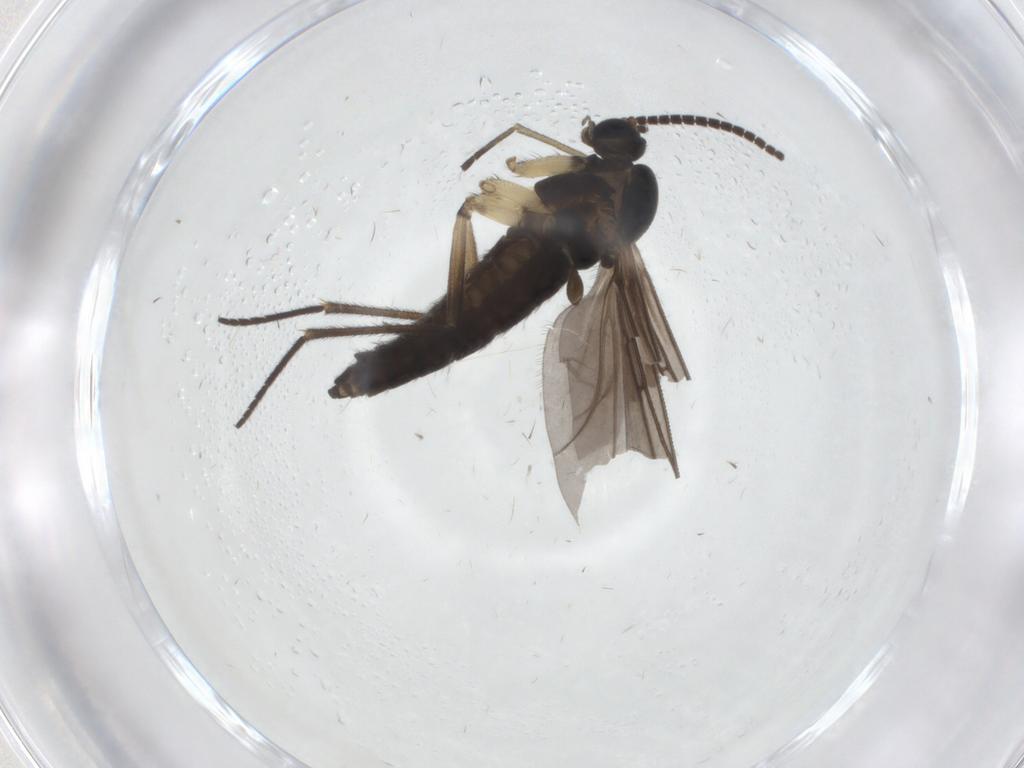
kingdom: Animalia
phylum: Arthropoda
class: Insecta
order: Diptera
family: Sciaridae
